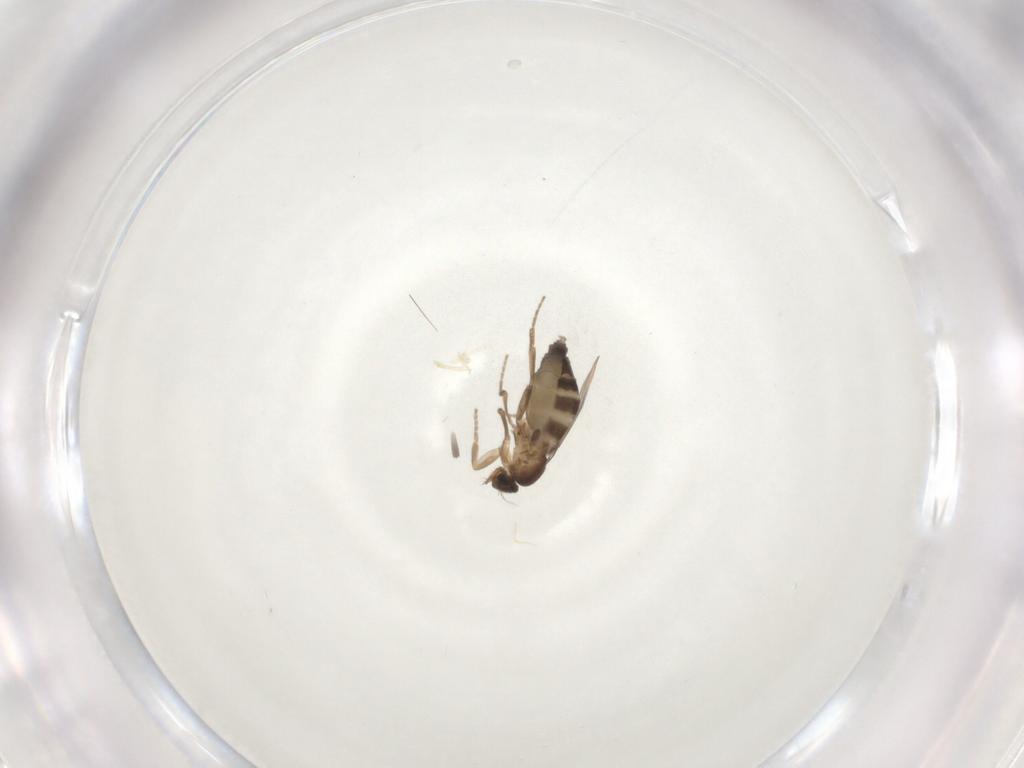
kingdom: Animalia
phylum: Arthropoda
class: Insecta
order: Diptera
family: Phoridae
